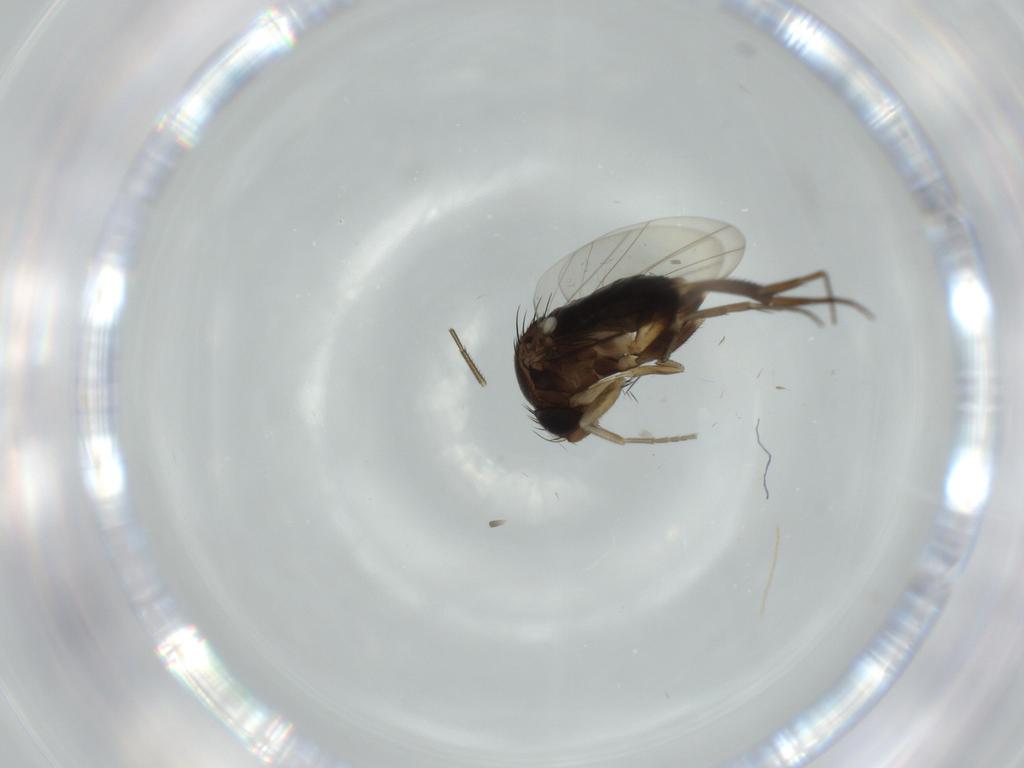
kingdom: Animalia
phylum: Arthropoda
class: Insecta
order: Diptera
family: Phoridae
